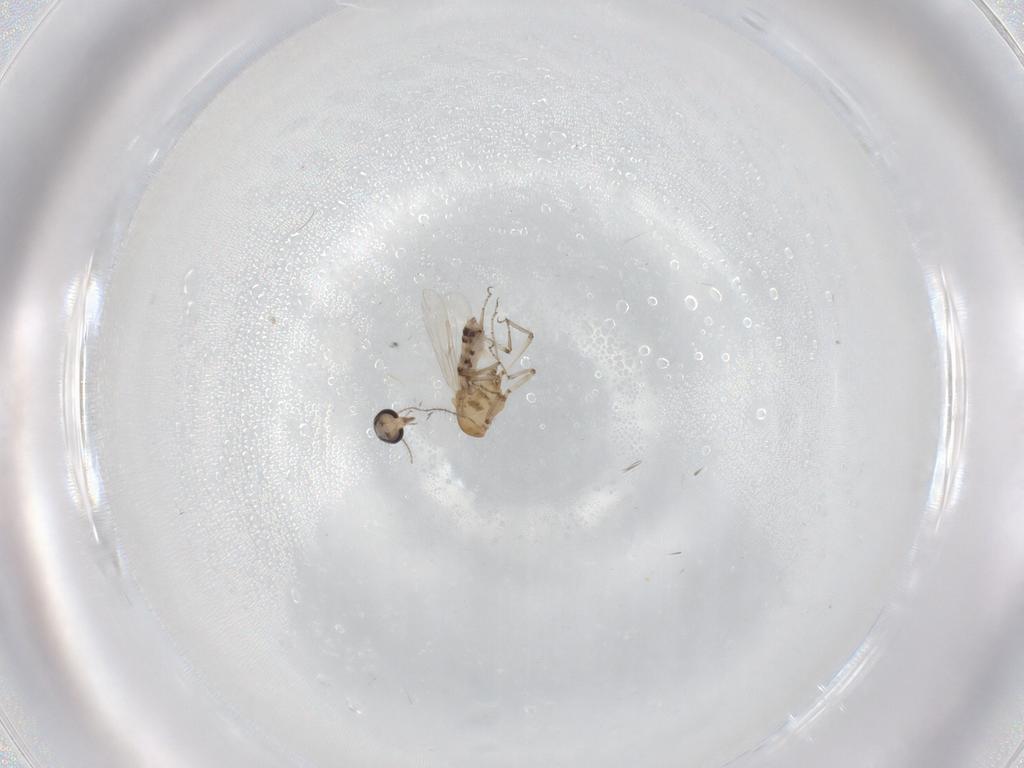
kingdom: Animalia
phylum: Arthropoda
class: Insecta
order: Diptera
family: Ceratopogonidae
